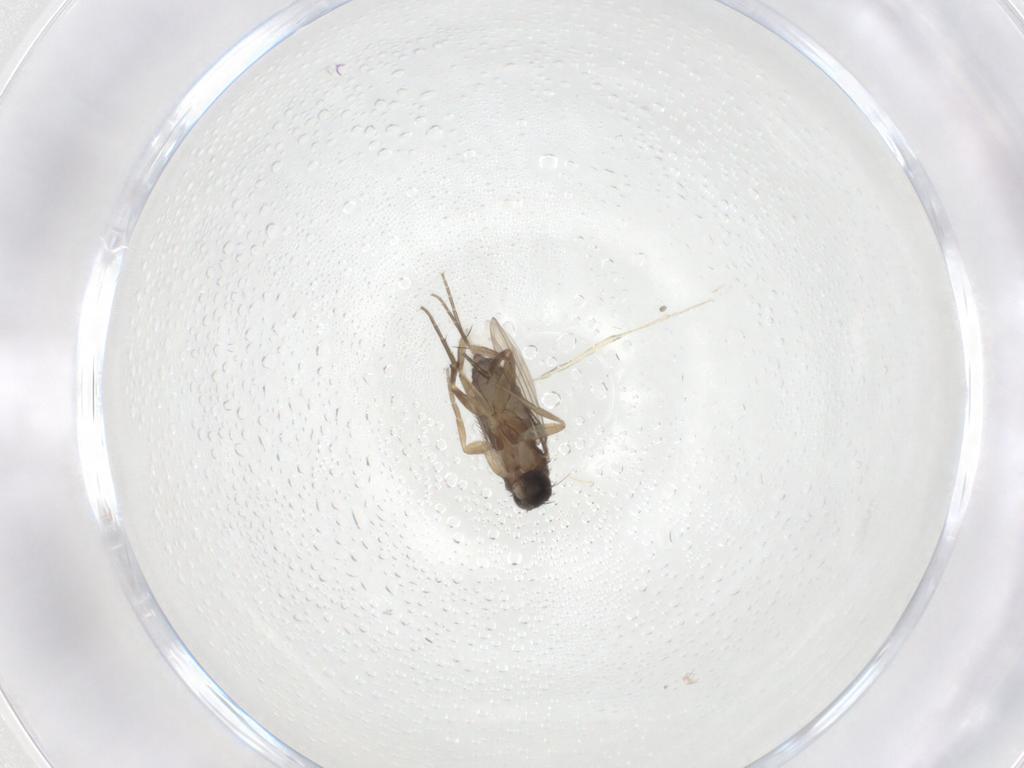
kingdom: Animalia
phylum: Arthropoda
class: Insecta
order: Diptera
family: Phoridae
